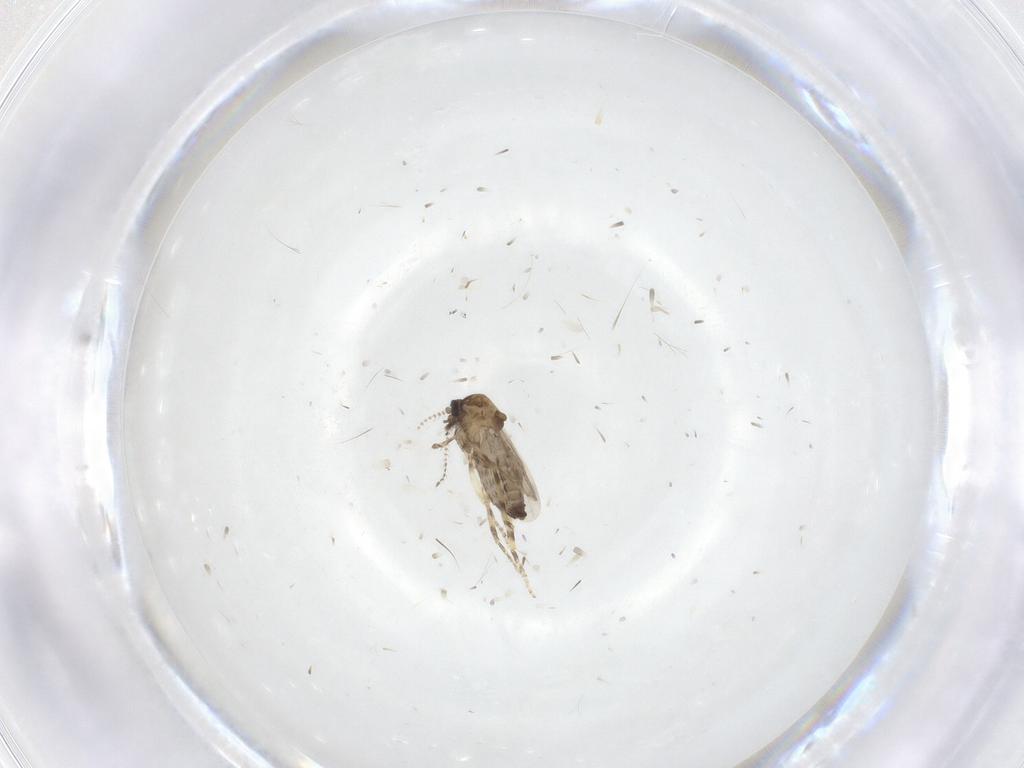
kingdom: Animalia
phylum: Arthropoda
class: Insecta
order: Diptera
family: Ceratopogonidae
